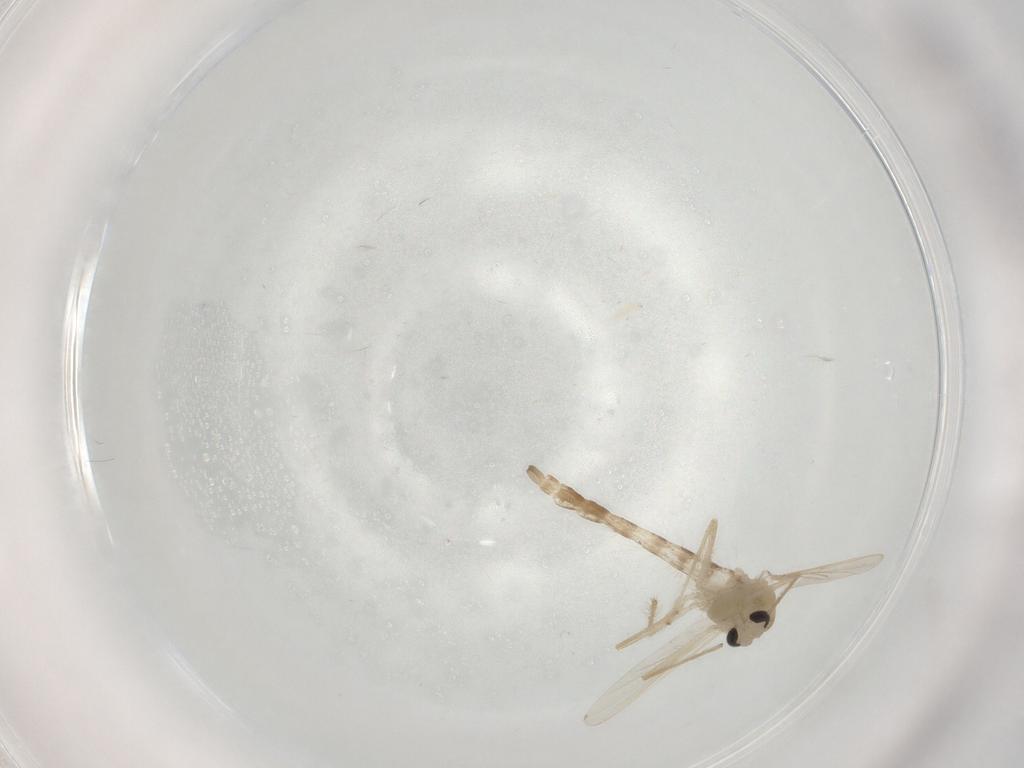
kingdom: Animalia
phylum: Arthropoda
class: Insecta
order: Diptera
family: Chironomidae
